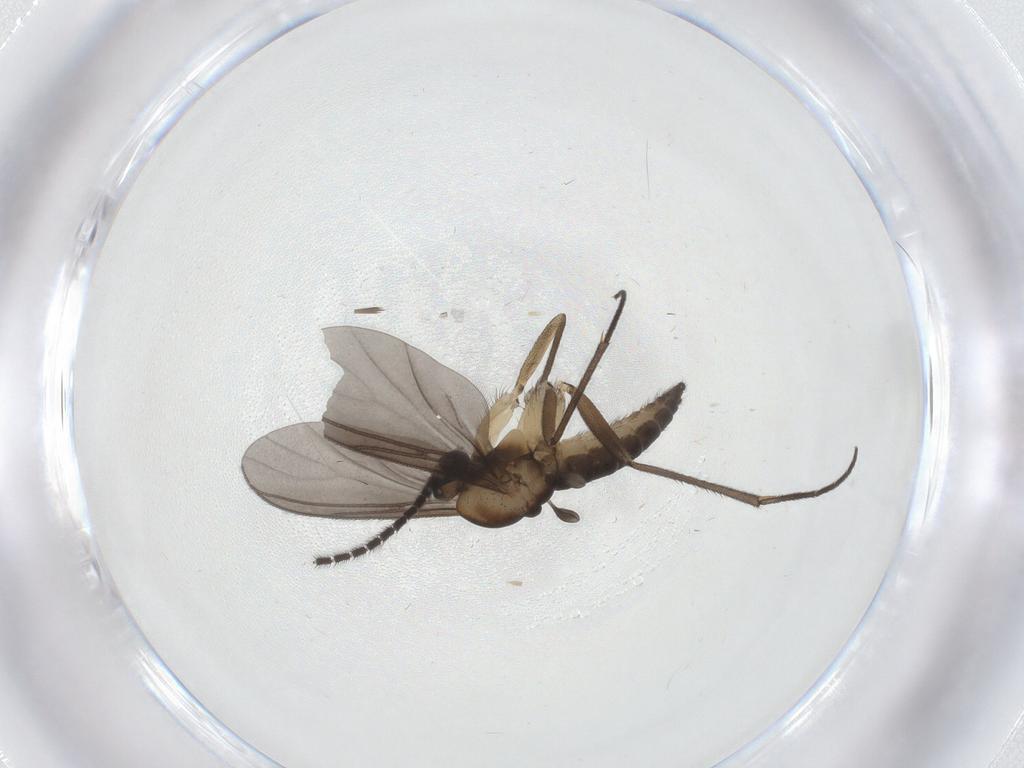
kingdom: Animalia
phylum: Arthropoda
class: Insecta
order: Diptera
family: Sciaridae
